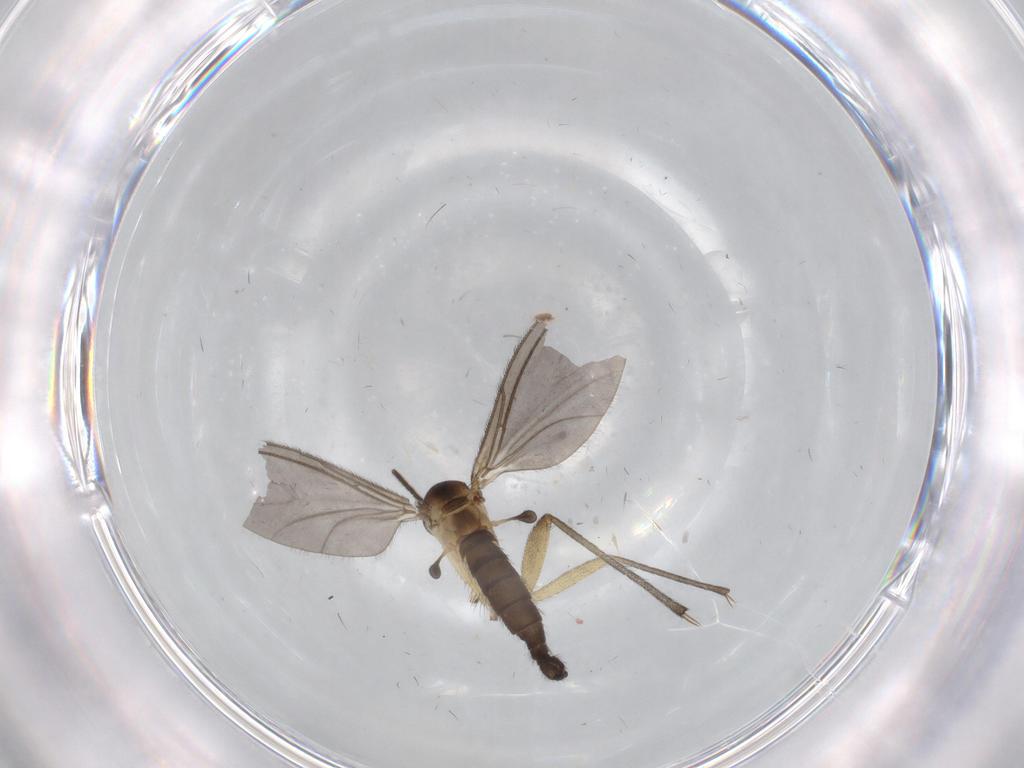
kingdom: Animalia
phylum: Arthropoda
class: Insecta
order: Diptera
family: Mycetophilidae
